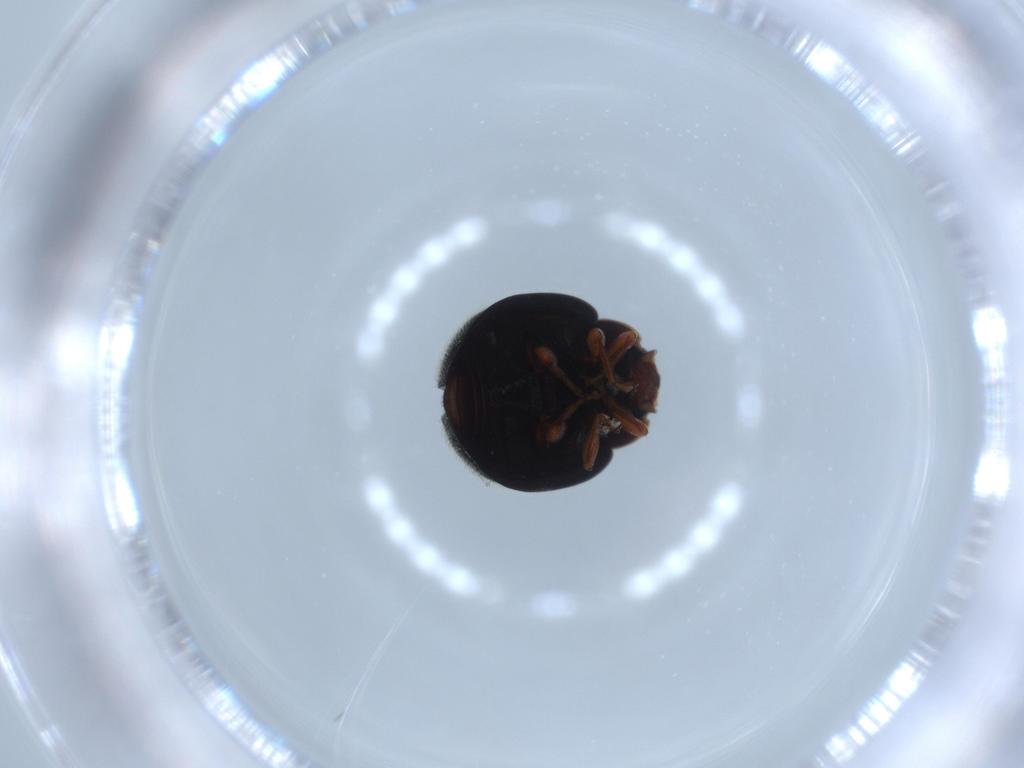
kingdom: Animalia
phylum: Arthropoda
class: Insecta
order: Coleoptera
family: Coccinellidae
